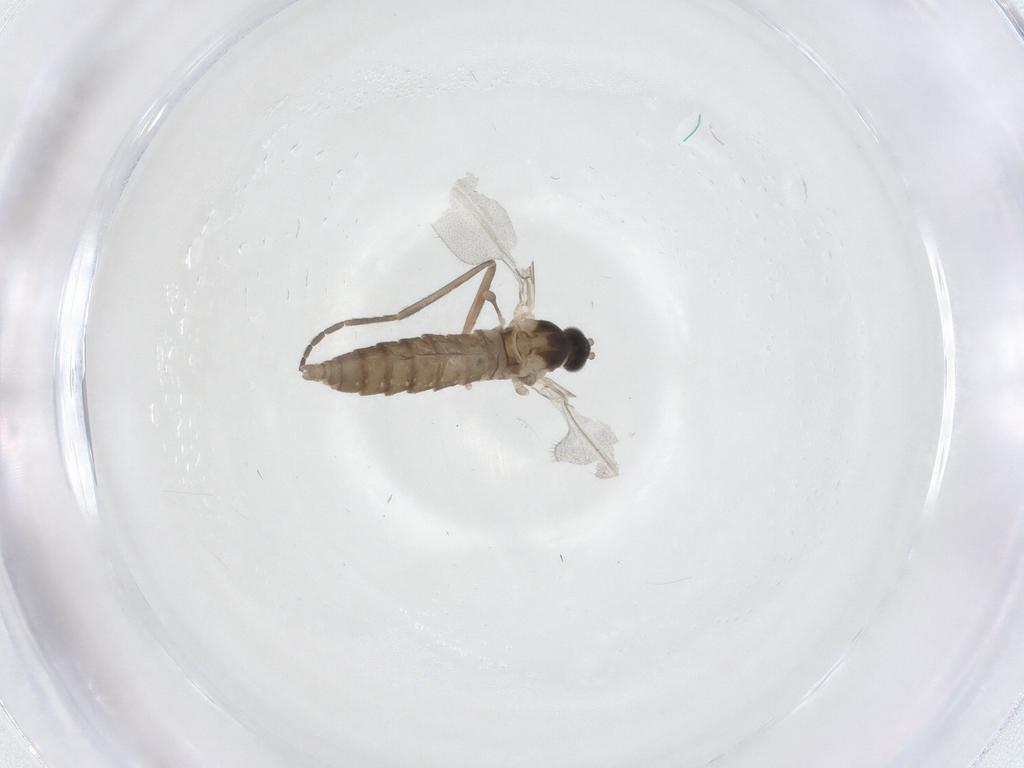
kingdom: Animalia
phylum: Arthropoda
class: Insecta
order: Diptera
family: Cecidomyiidae
